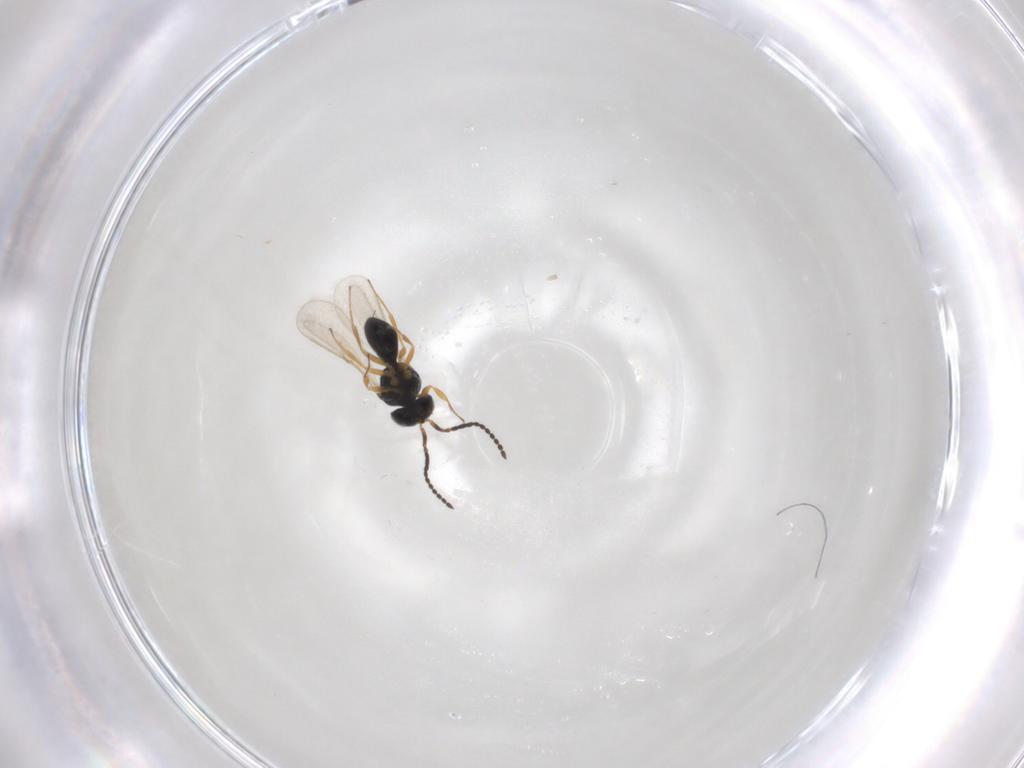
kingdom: Animalia
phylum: Arthropoda
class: Insecta
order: Hymenoptera
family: Scelionidae
